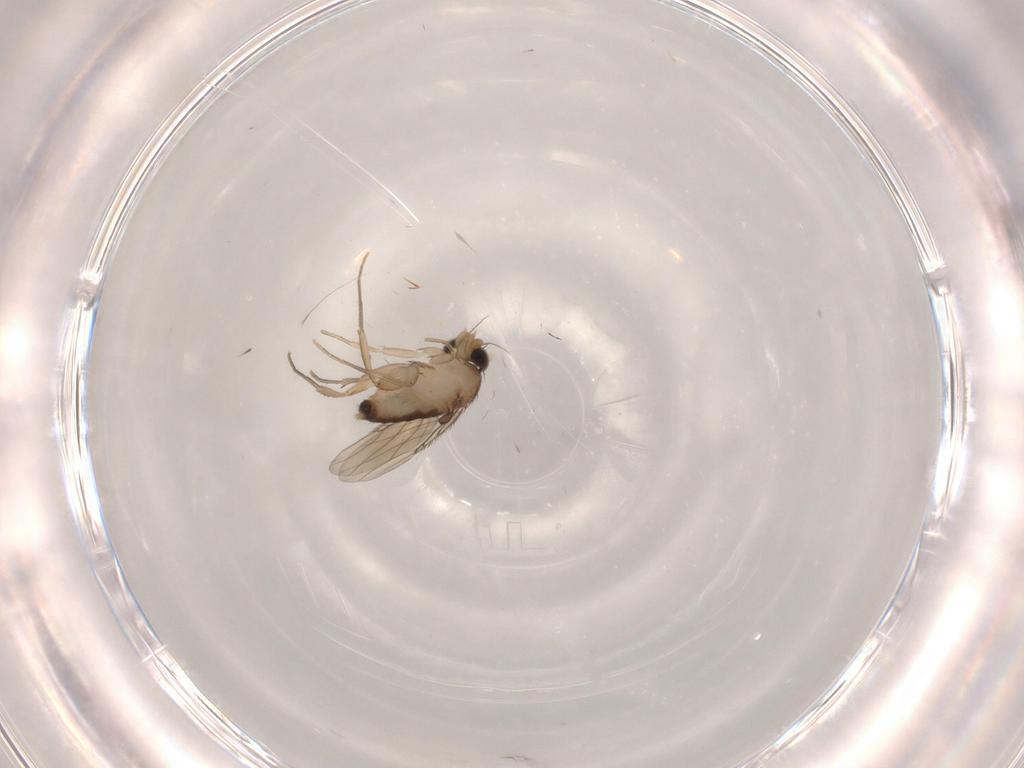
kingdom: Animalia
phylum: Arthropoda
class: Insecta
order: Diptera
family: Phoridae
